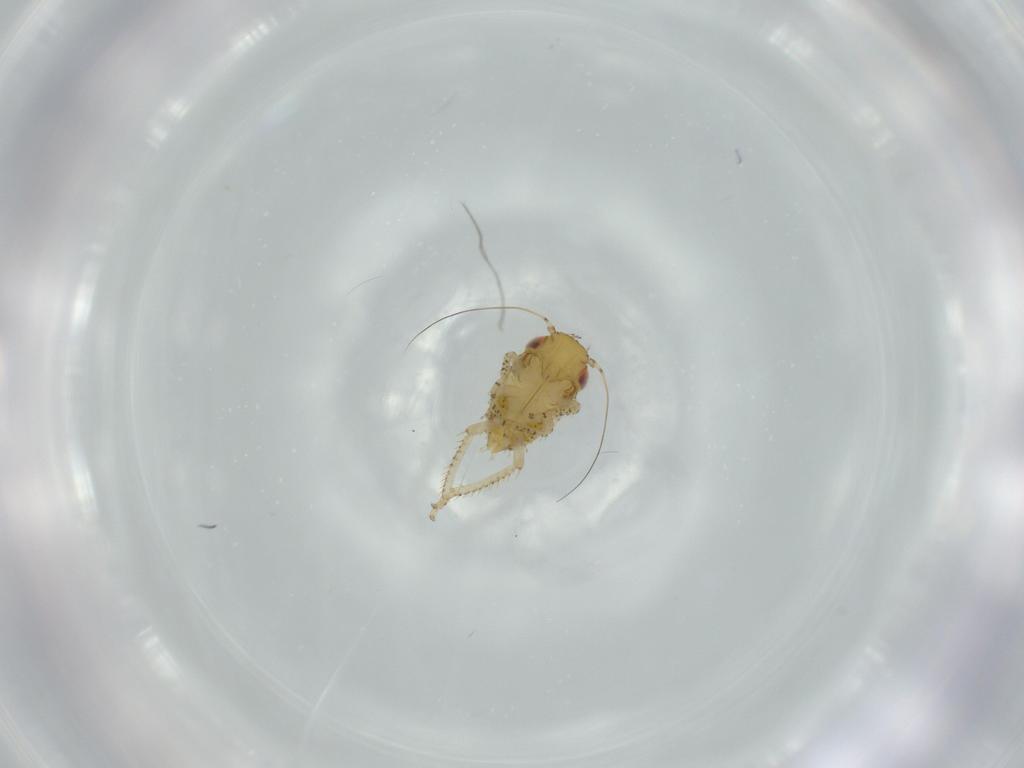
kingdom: Animalia
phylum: Arthropoda
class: Insecta
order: Hemiptera
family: Cicadellidae
